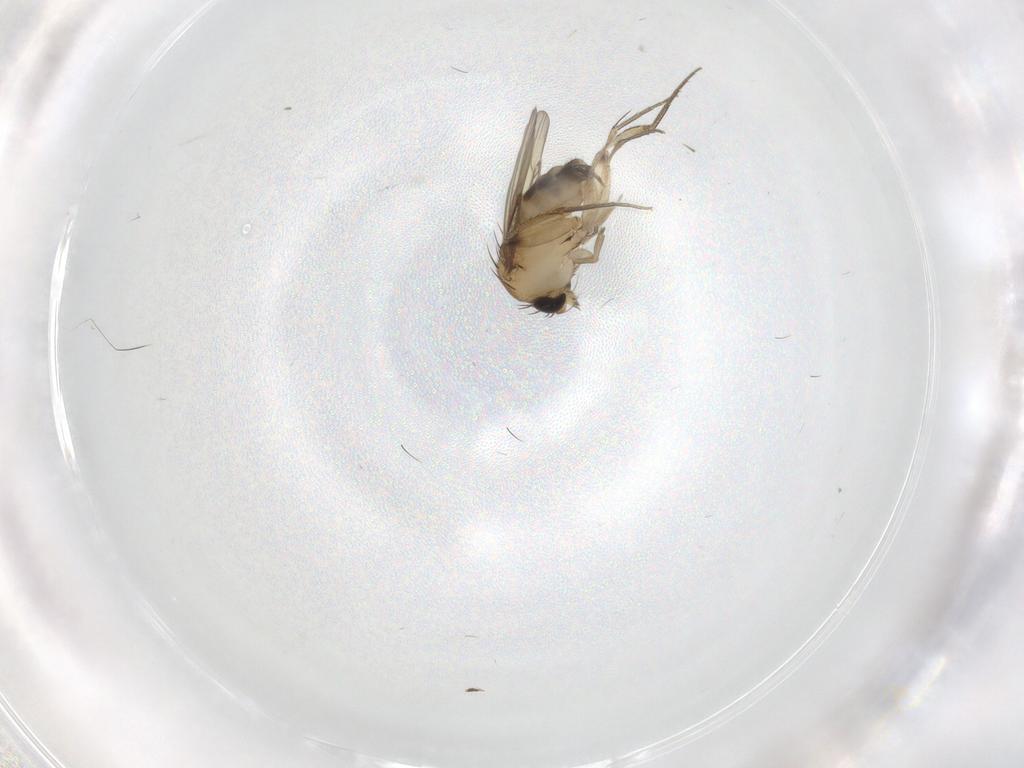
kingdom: Animalia
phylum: Arthropoda
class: Insecta
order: Diptera
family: Phoridae
